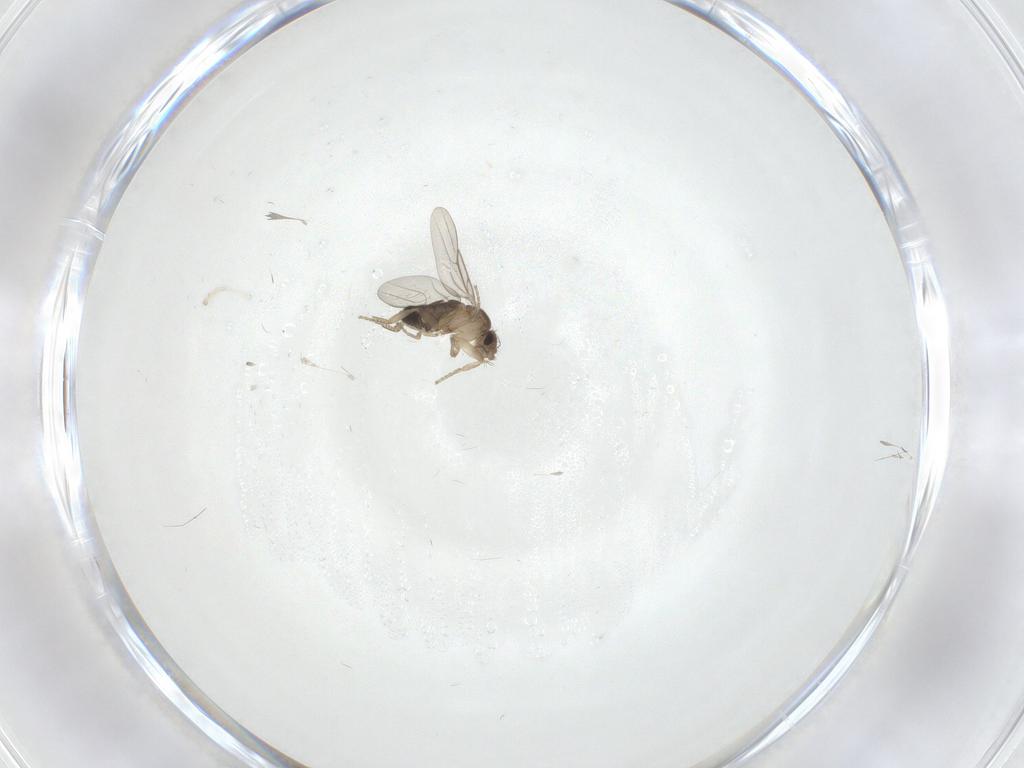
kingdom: Animalia
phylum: Arthropoda
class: Insecta
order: Diptera
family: Phoridae
